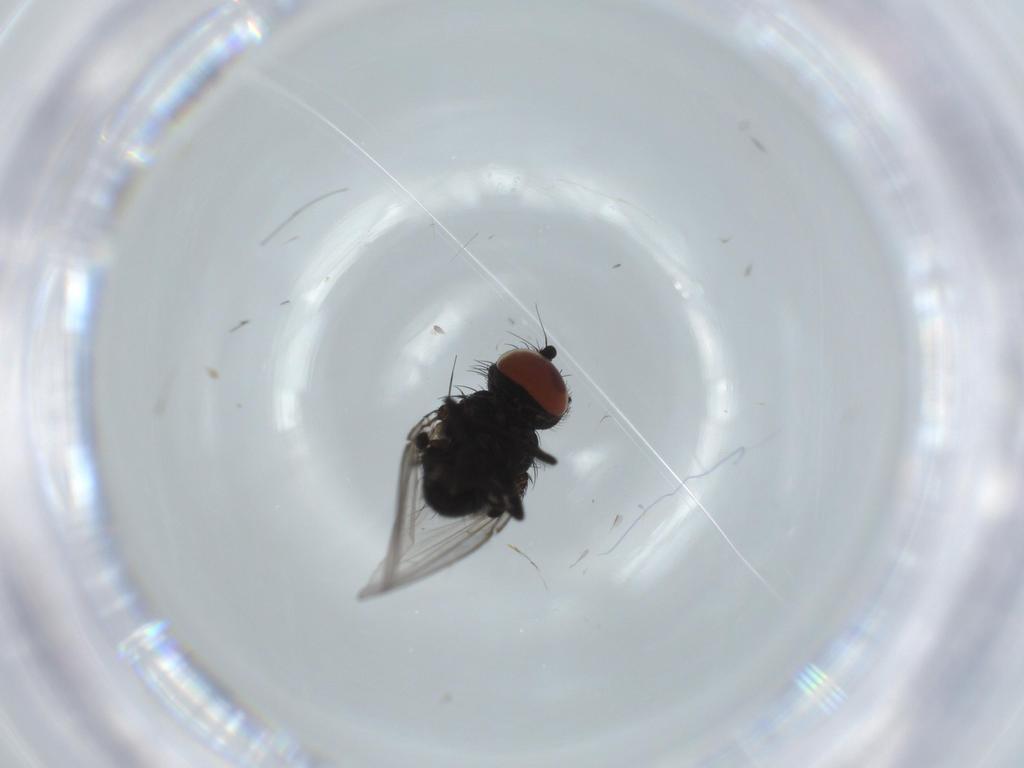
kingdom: Animalia
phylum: Arthropoda
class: Insecta
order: Diptera
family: Milichiidae
